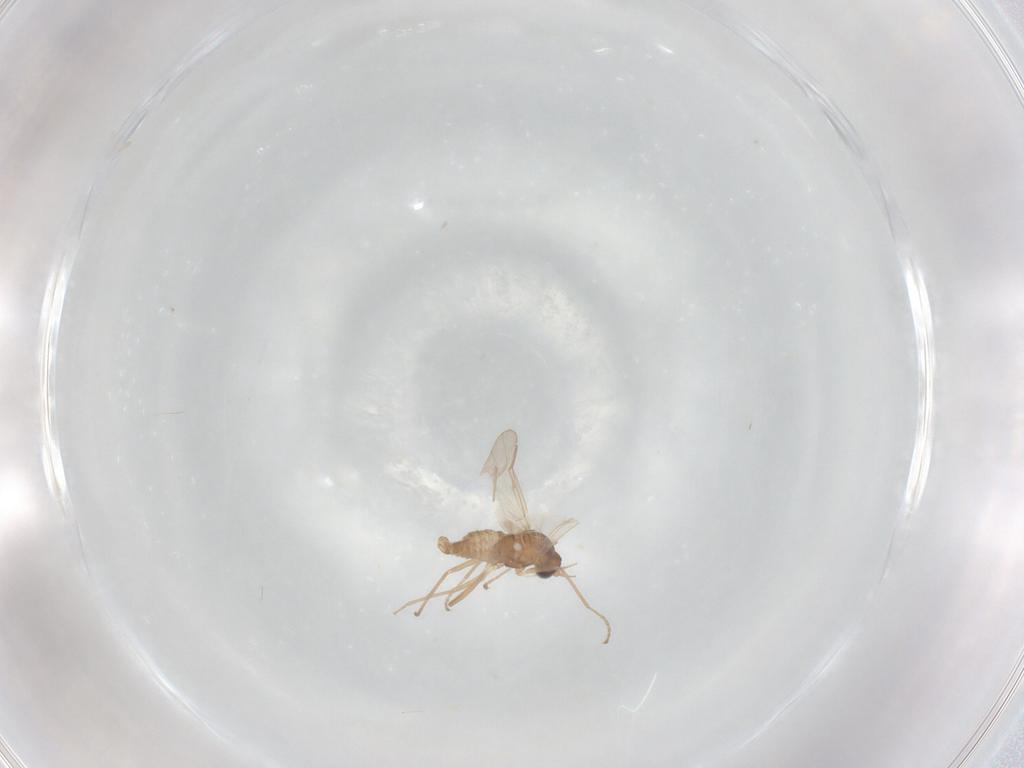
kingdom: Animalia
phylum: Arthropoda
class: Insecta
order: Diptera
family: Cecidomyiidae
